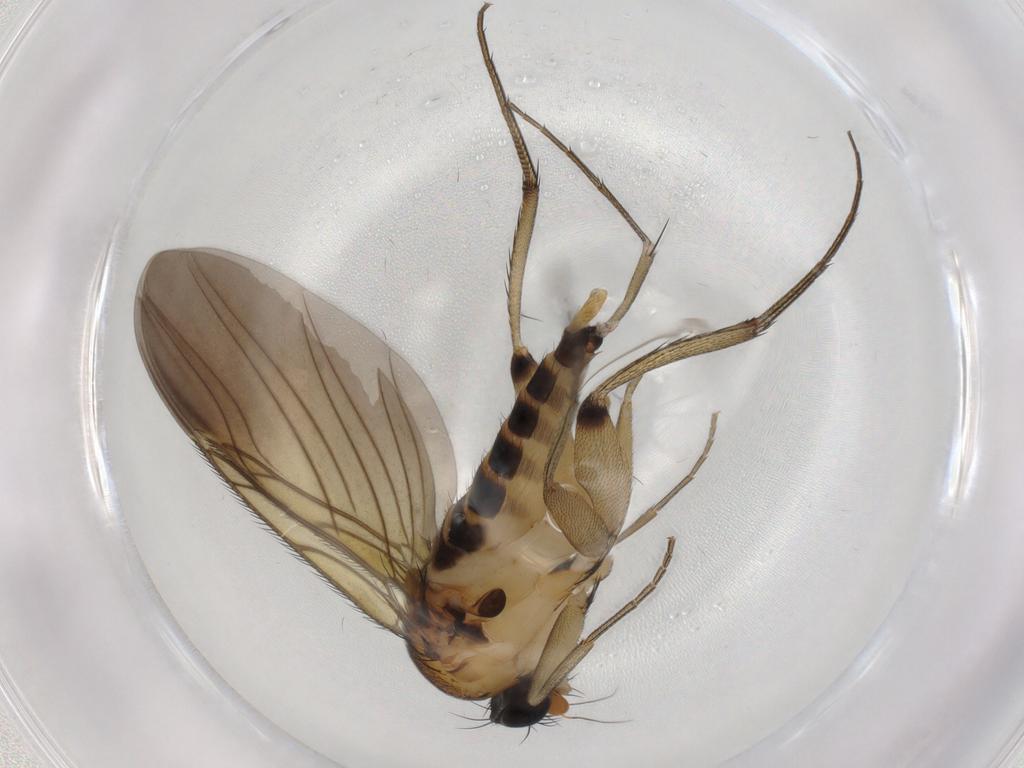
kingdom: Animalia
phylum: Arthropoda
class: Insecta
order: Diptera
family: Phoridae
